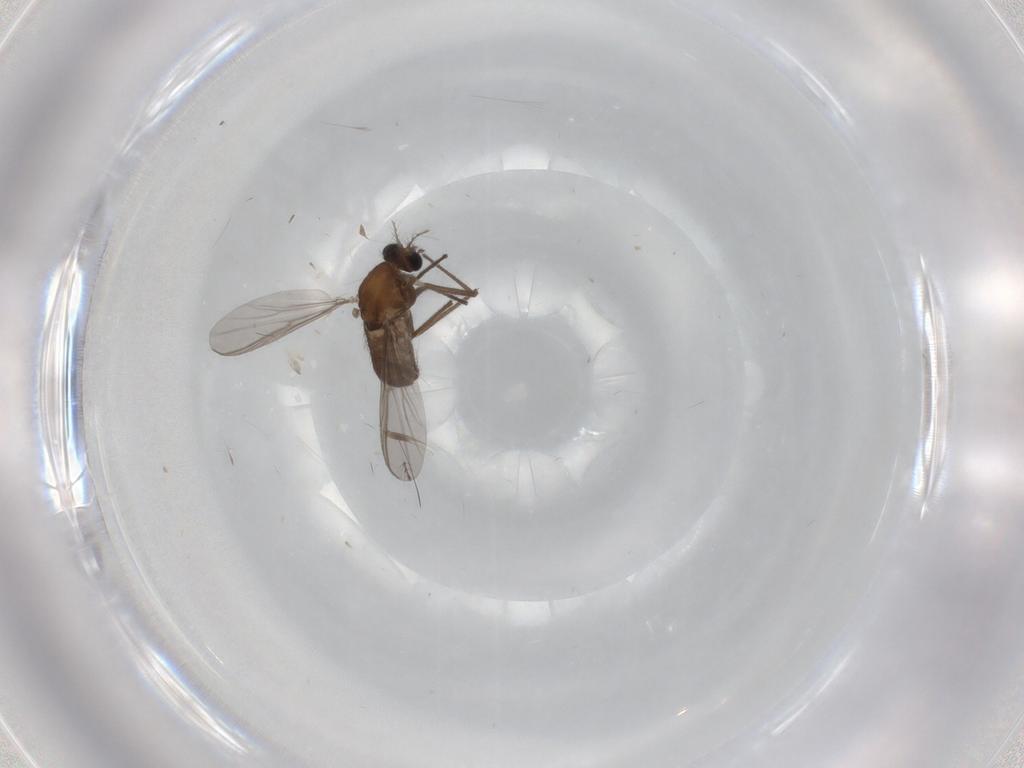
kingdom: Animalia
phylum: Arthropoda
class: Insecta
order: Diptera
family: Chironomidae
